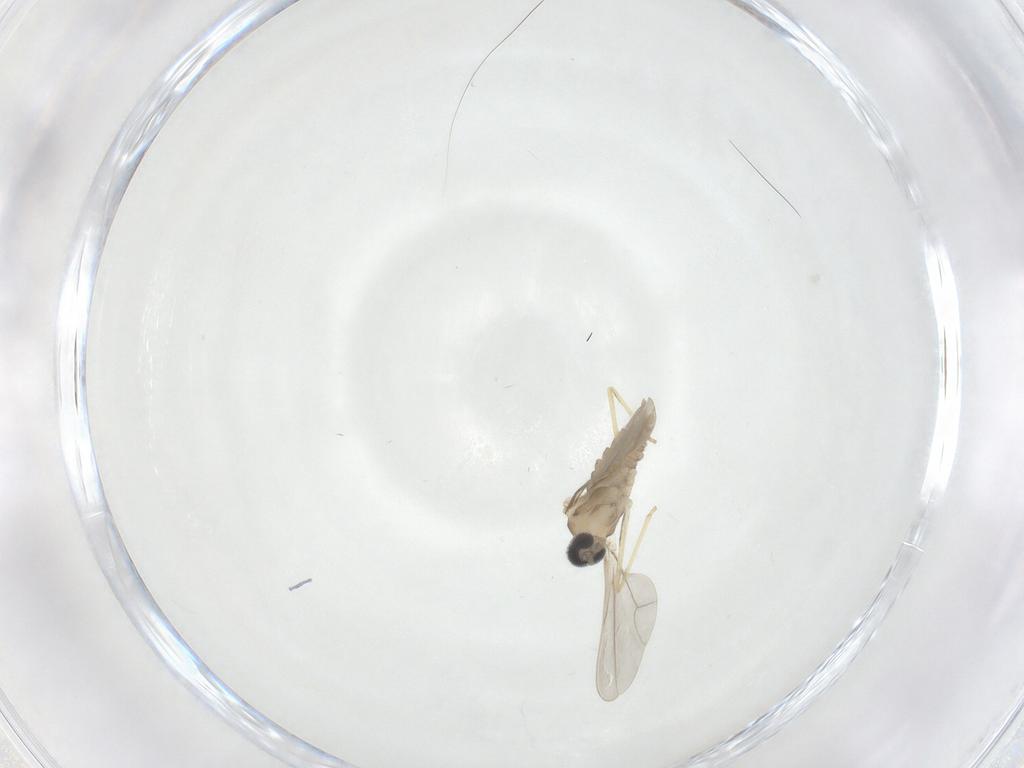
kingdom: Animalia
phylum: Arthropoda
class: Insecta
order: Diptera
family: Cecidomyiidae
